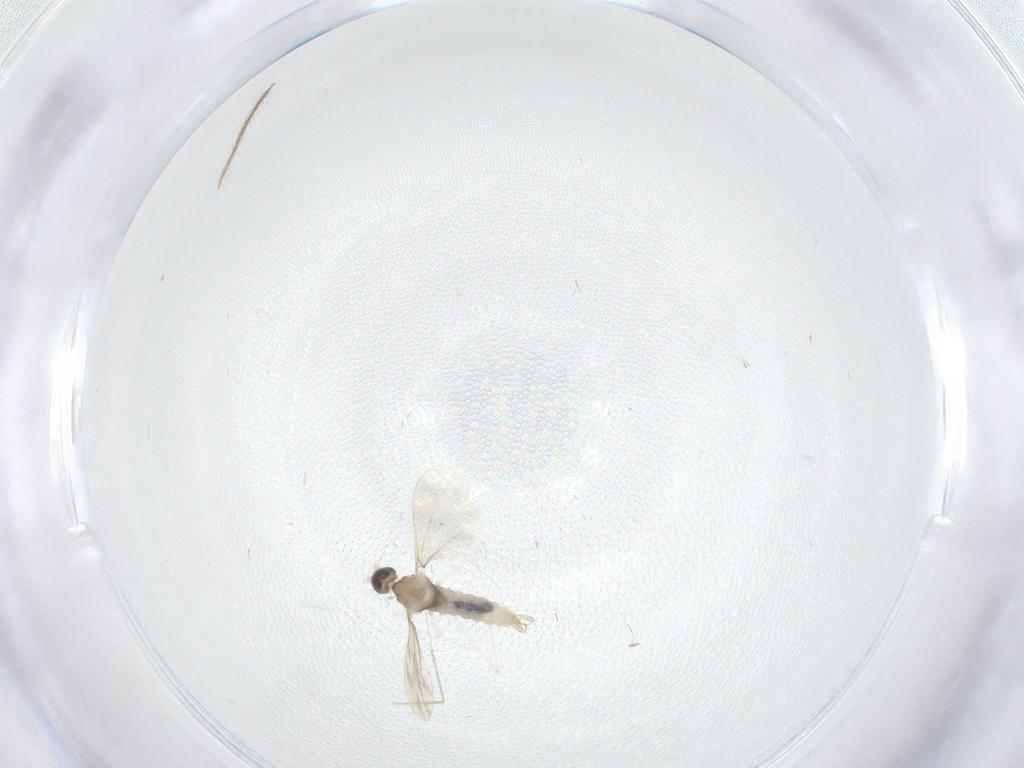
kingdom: Animalia
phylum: Arthropoda
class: Insecta
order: Diptera
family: Cecidomyiidae
